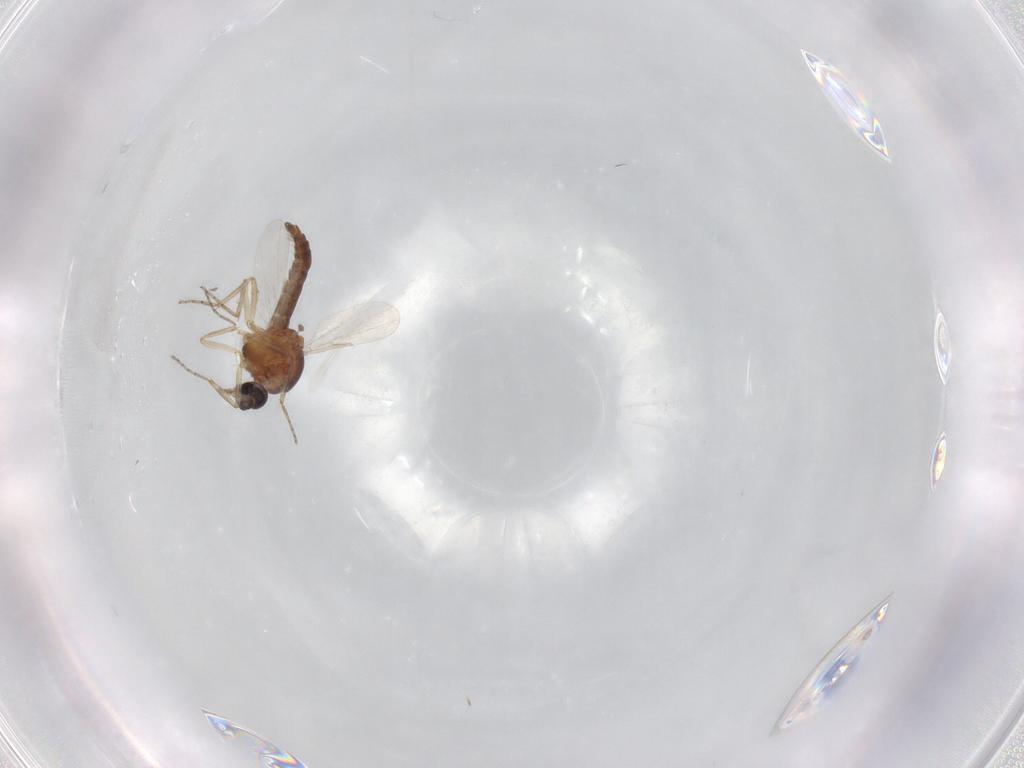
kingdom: Animalia
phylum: Arthropoda
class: Insecta
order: Diptera
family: Ceratopogonidae
